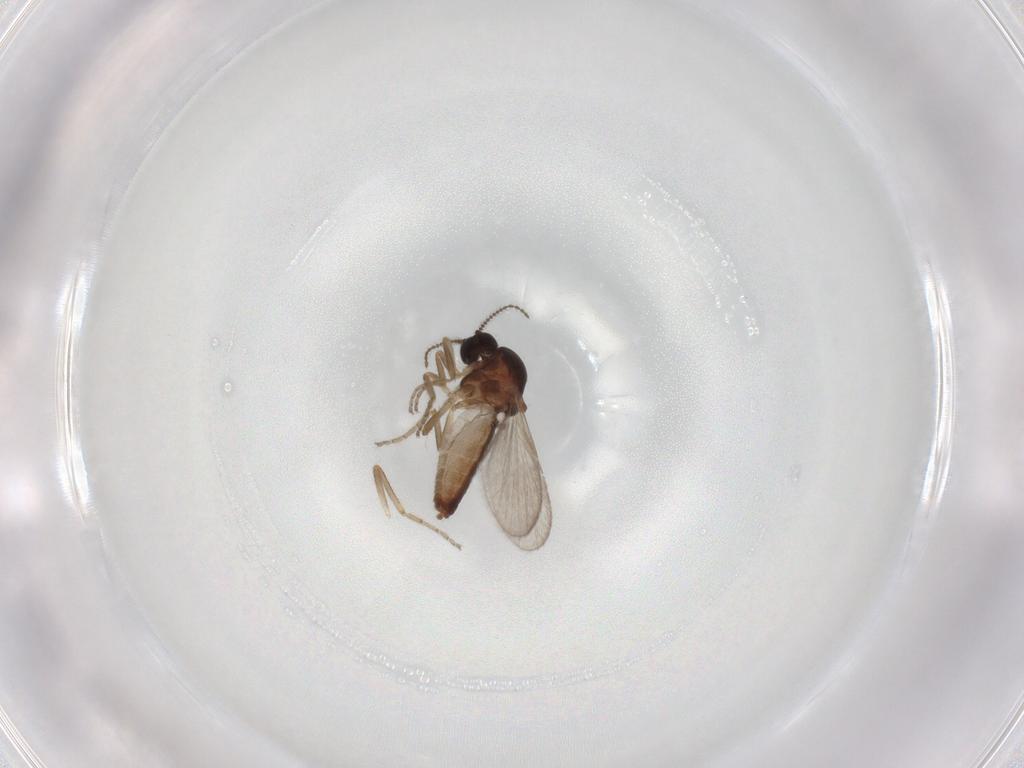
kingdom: Animalia
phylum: Arthropoda
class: Insecta
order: Diptera
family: Ceratopogonidae
